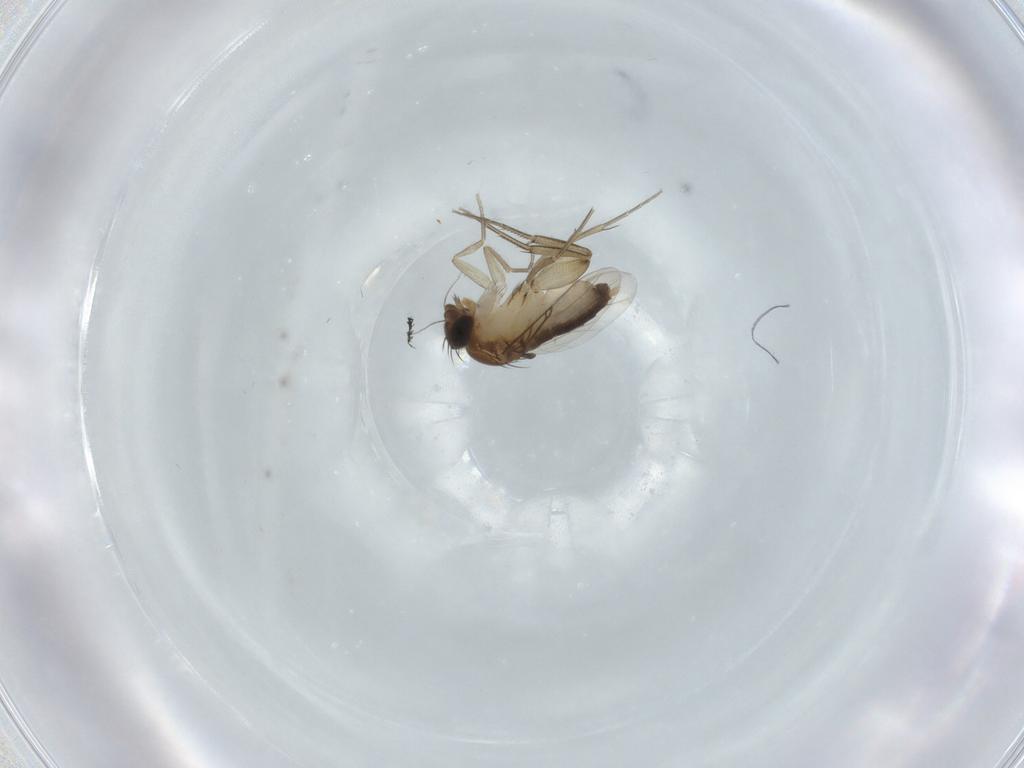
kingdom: Animalia
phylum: Arthropoda
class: Insecta
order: Diptera
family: Phoridae
